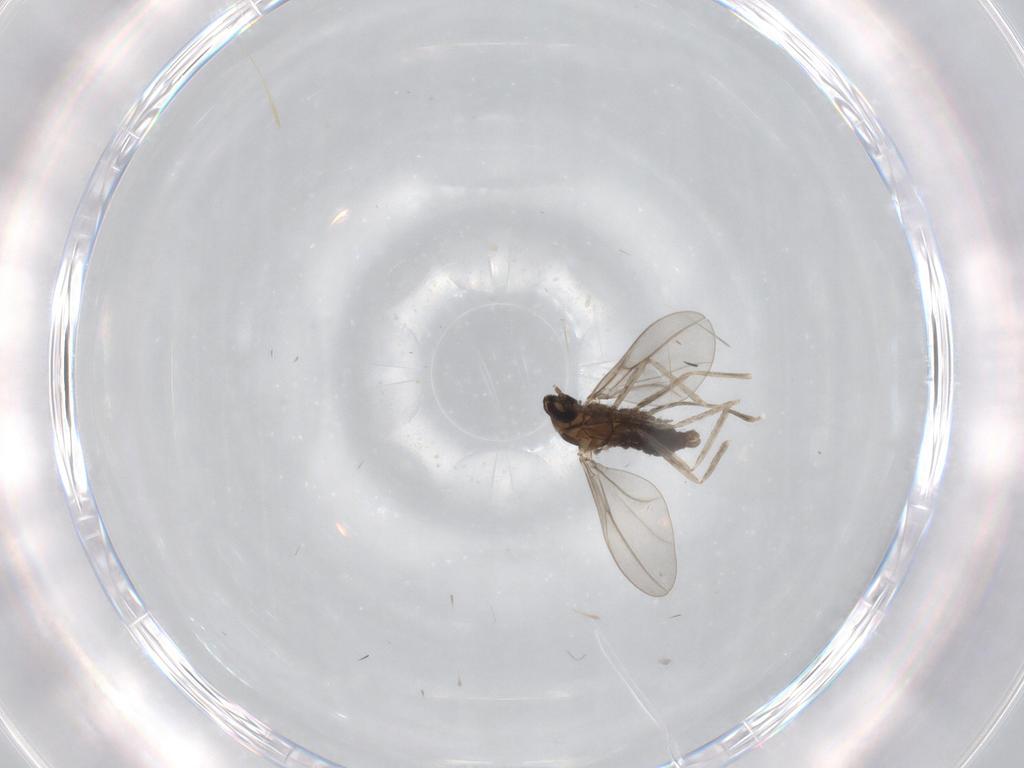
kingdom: Animalia
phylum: Arthropoda
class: Insecta
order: Diptera
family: Cecidomyiidae
